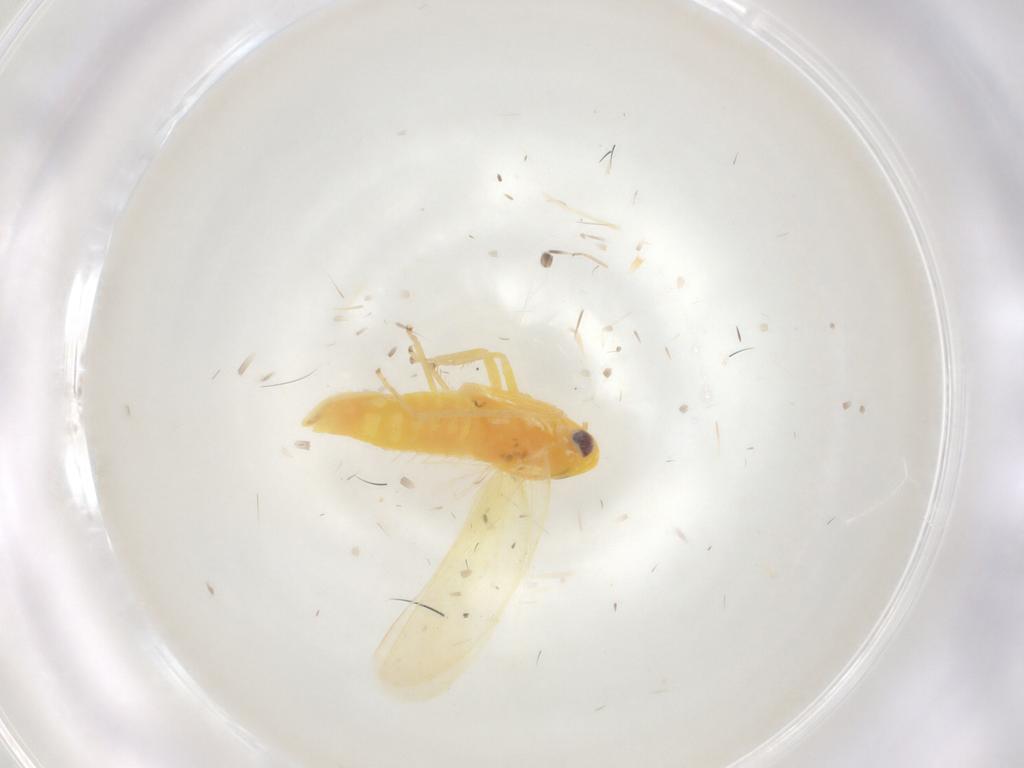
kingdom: Animalia
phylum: Arthropoda
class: Insecta
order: Hemiptera
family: Cicadellidae
